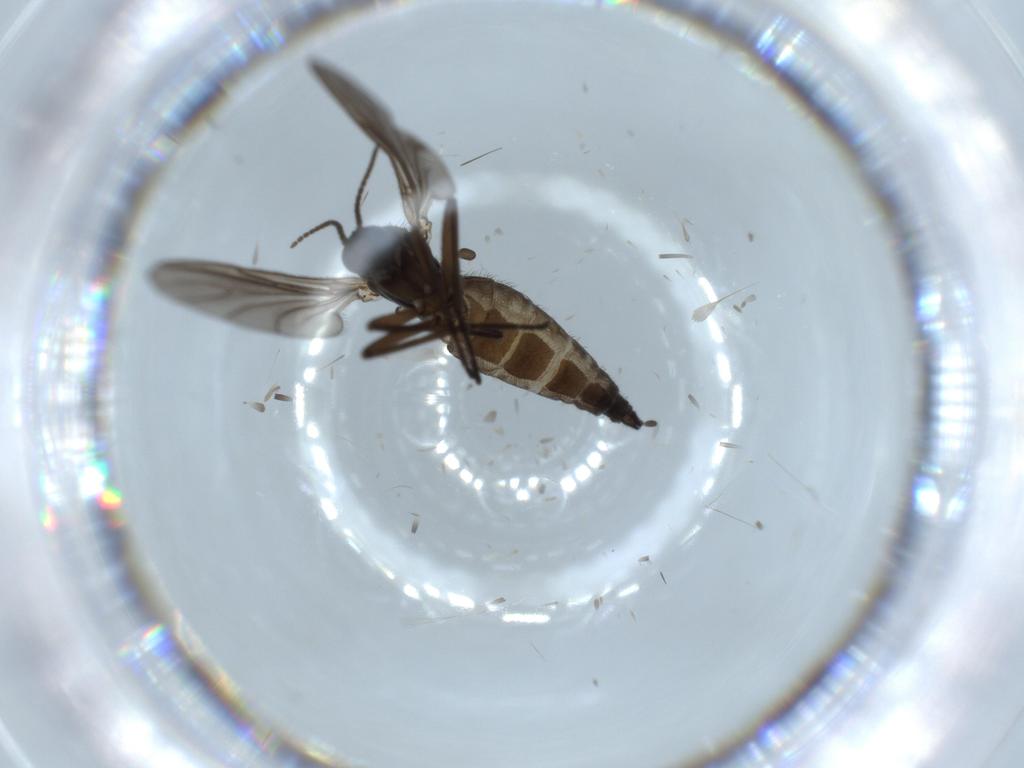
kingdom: Animalia
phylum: Arthropoda
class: Insecta
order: Diptera
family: Sciaridae
